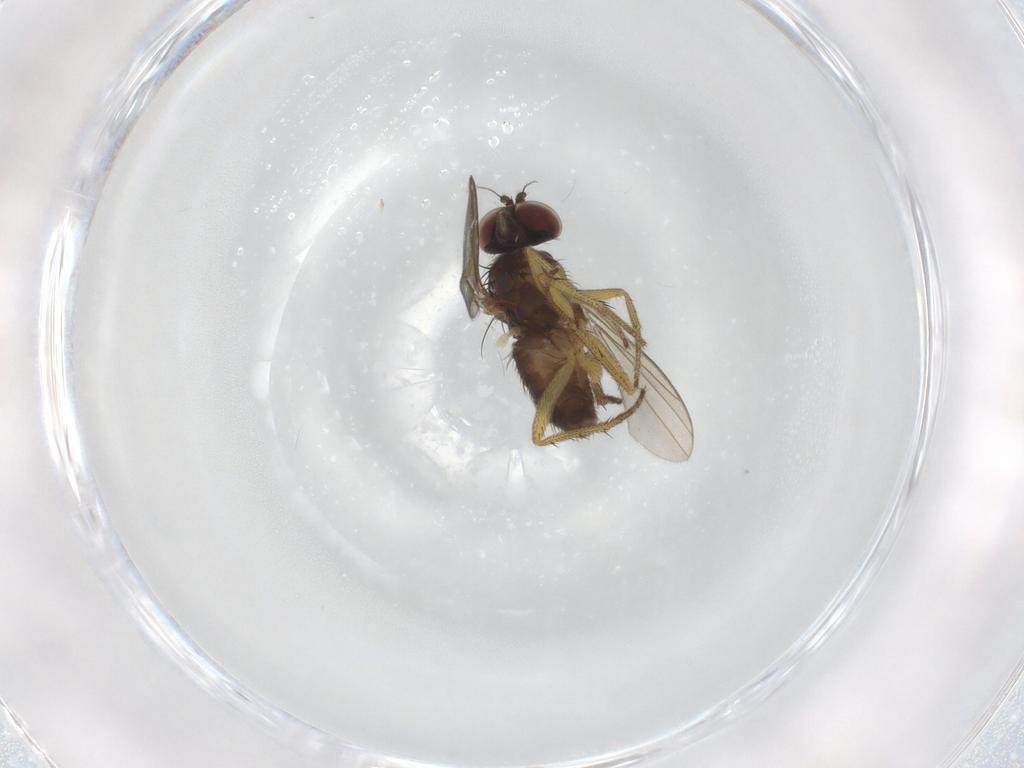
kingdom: Animalia
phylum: Arthropoda
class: Insecta
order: Diptera
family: Dolichopodidae
